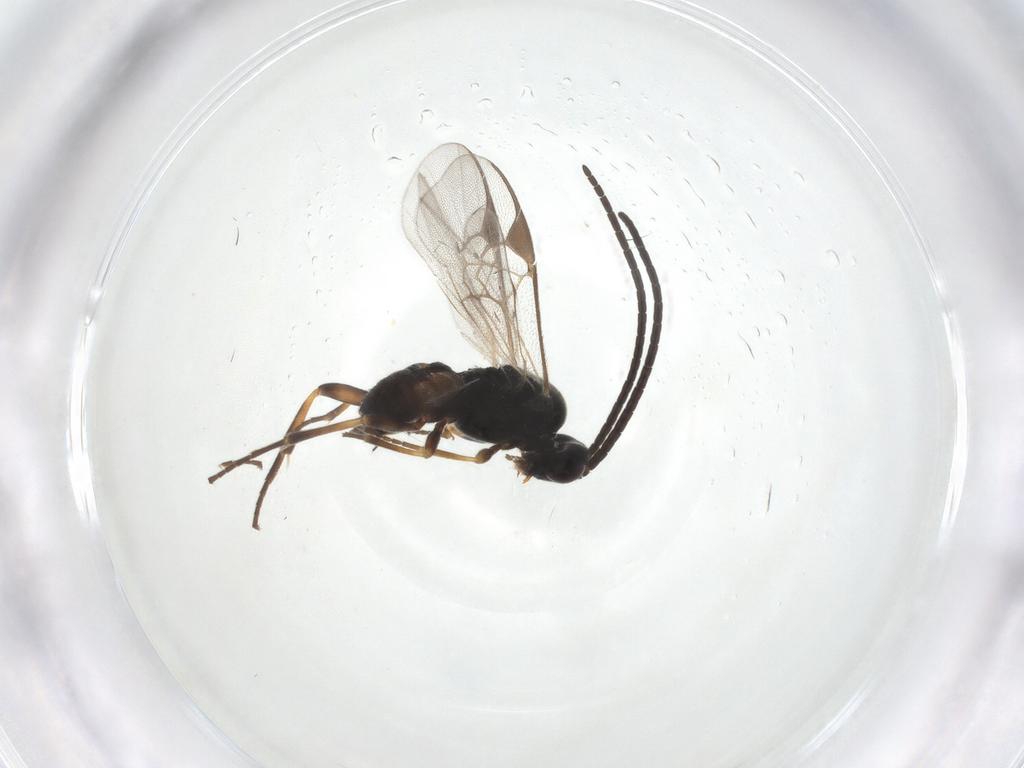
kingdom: Animalia
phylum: Arthropoda
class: Insecta
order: Hymenoptera
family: Braconidae
